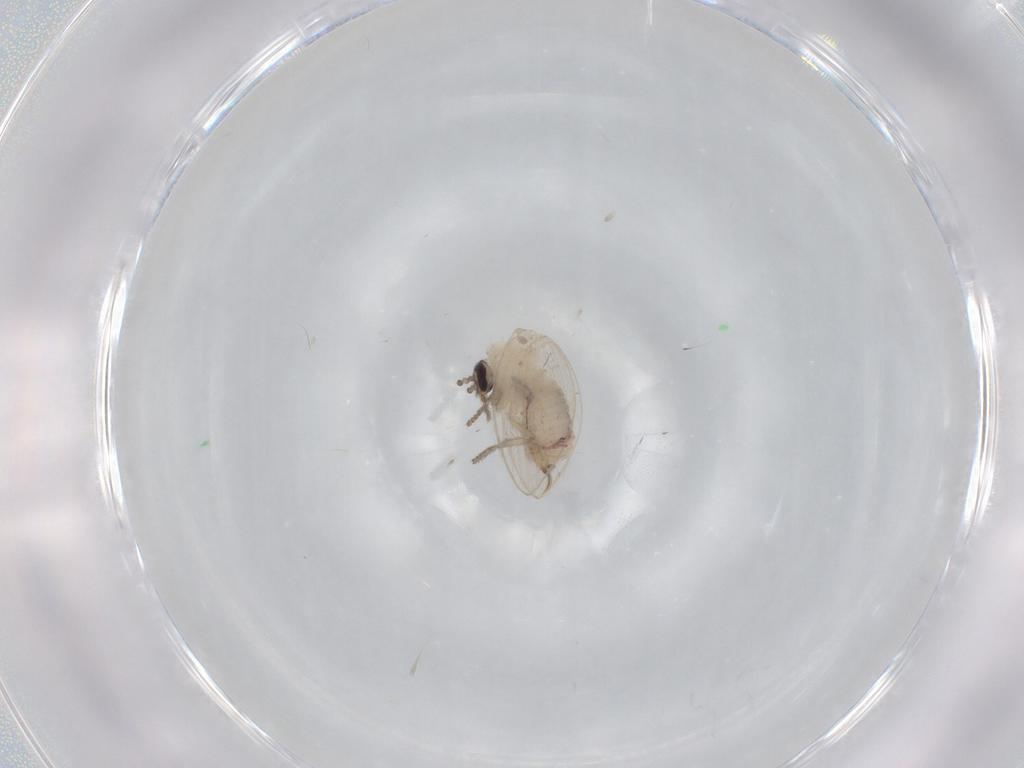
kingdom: Animalia
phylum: Arthropoda
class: Insecta
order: Diptera
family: Psychodidae
